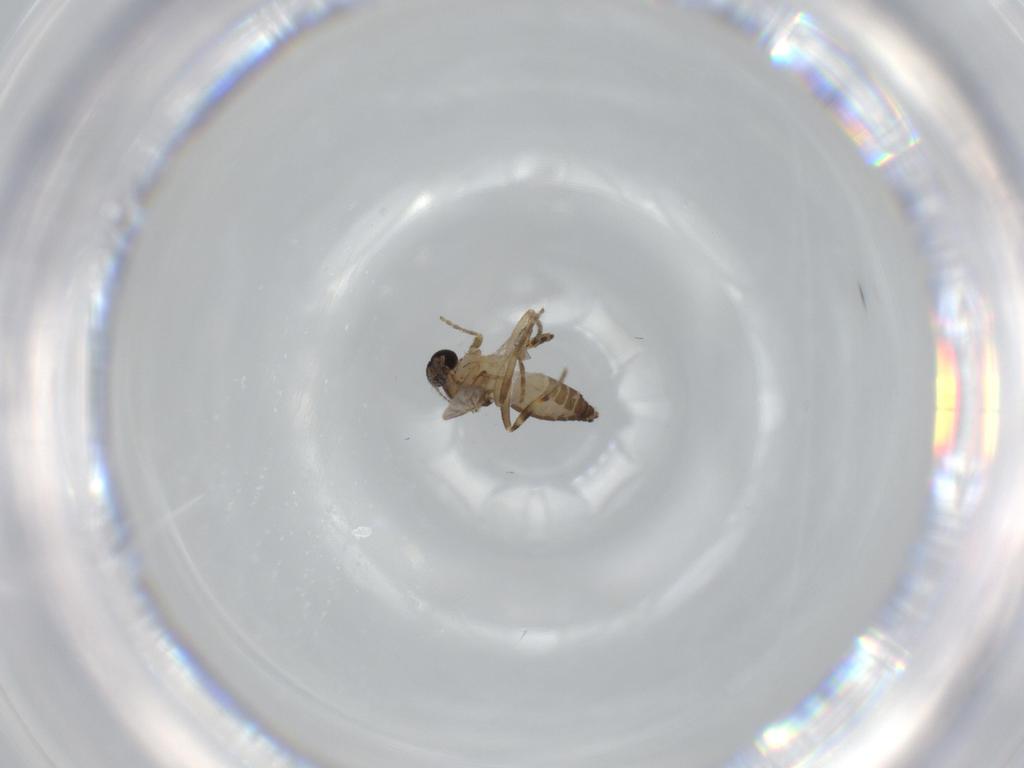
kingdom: Animalia
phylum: Arthropoda
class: Insecta
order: Diptera
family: Ceratopogonidae
